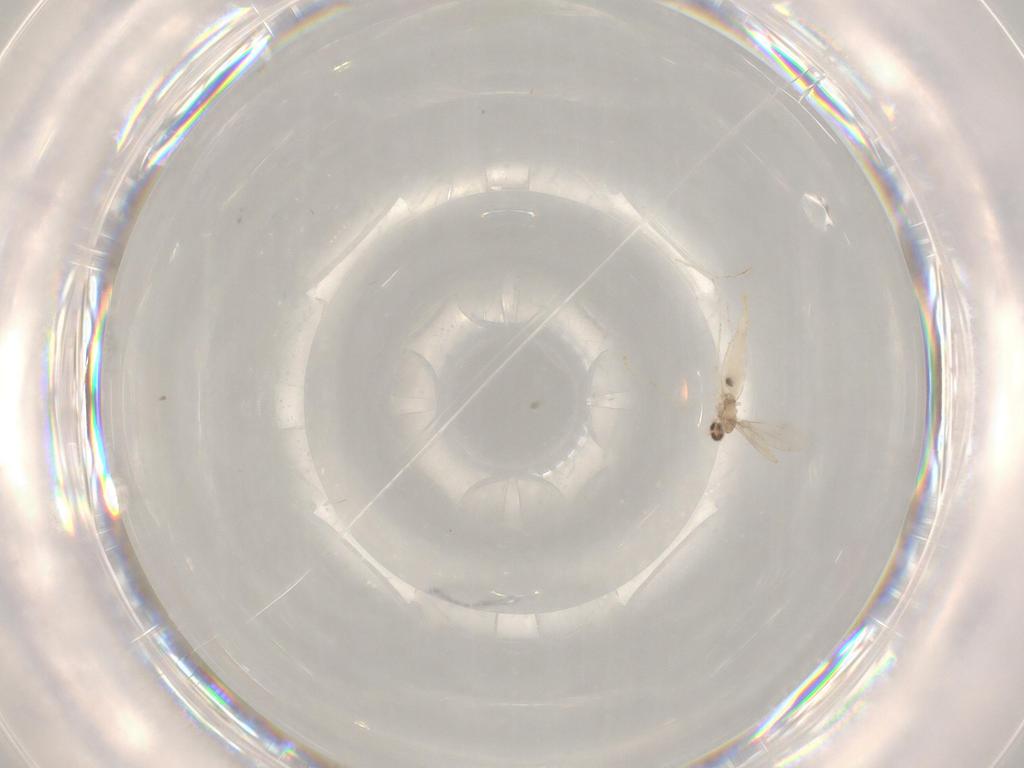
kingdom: Animalia
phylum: Arthropoda
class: Insecta
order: Diptera
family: Cecidomyiidae
